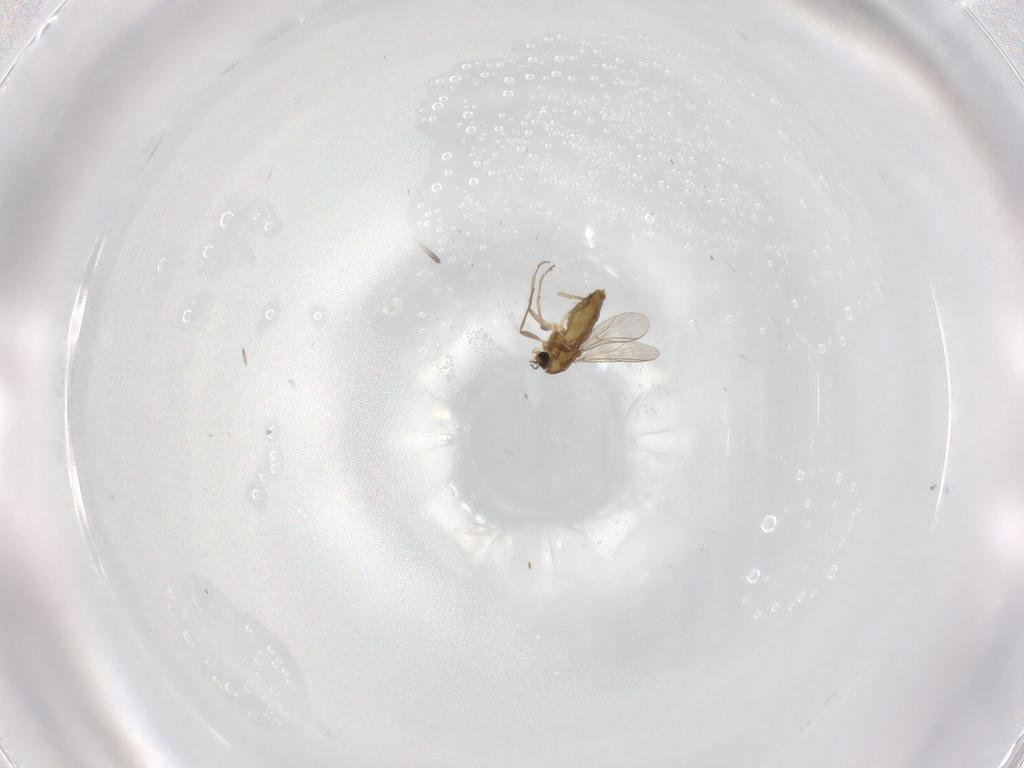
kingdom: Animalia
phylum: Arthropoda
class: Insecta
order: Diptera
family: Chironomidae
